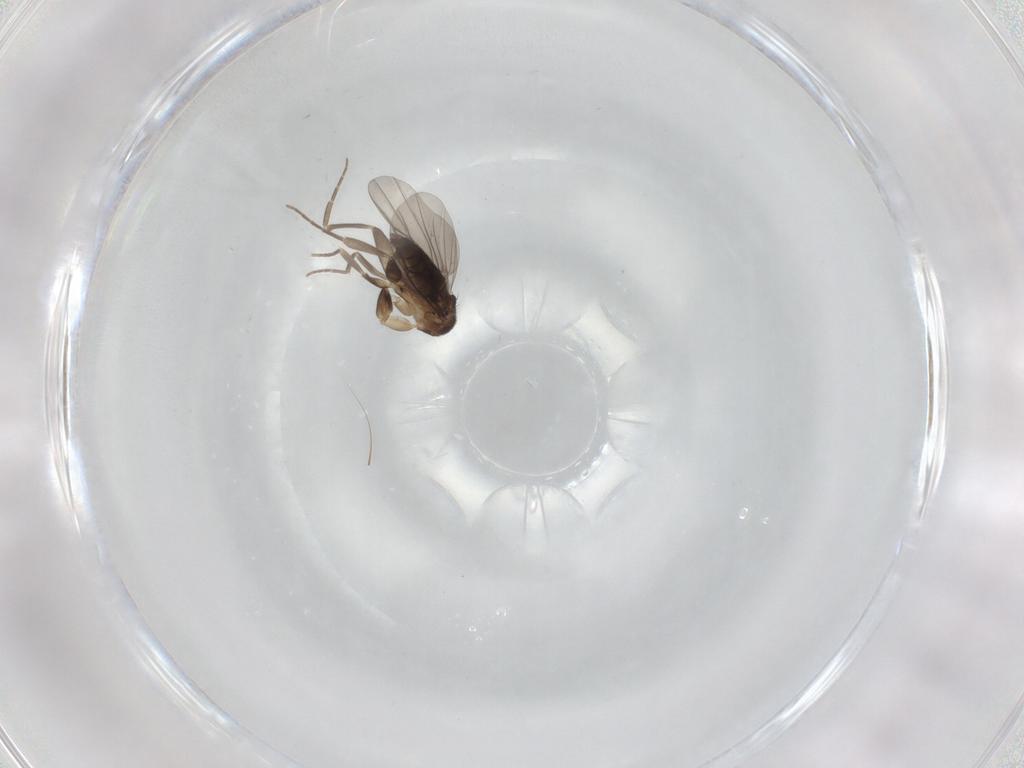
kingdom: Animalia
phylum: Arthropoda
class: Insecta
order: Diptera
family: Phoridae
